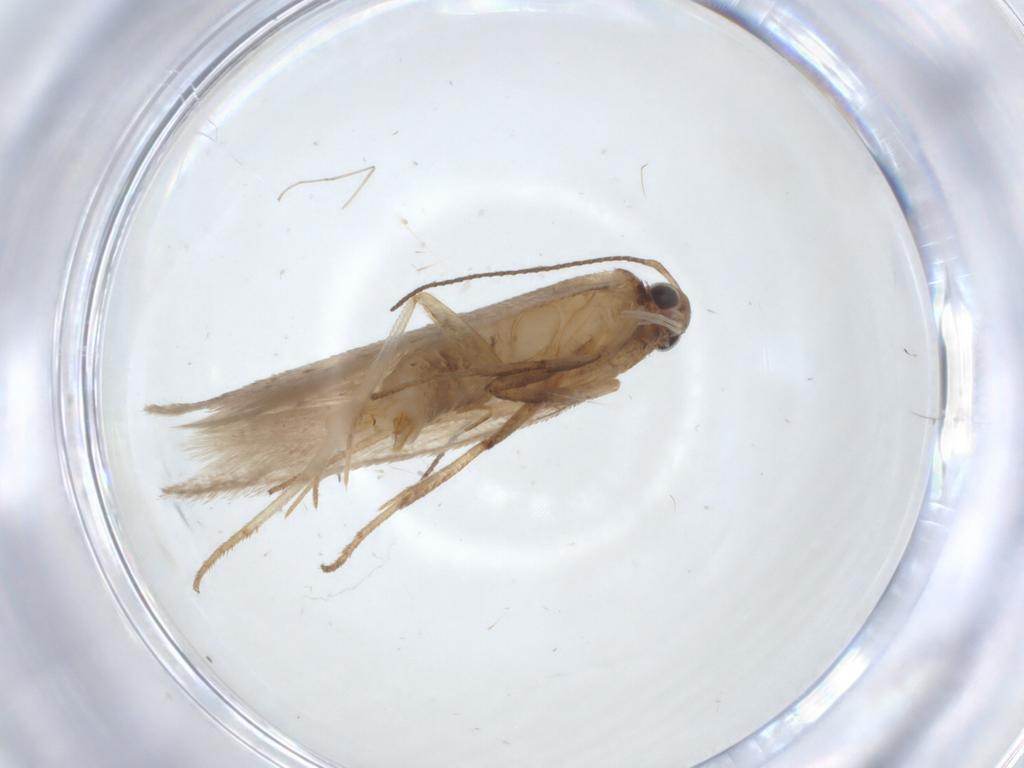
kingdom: Animalia
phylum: Arthropoda
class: Insecta
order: Lepidoptera
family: Gelechiidae
